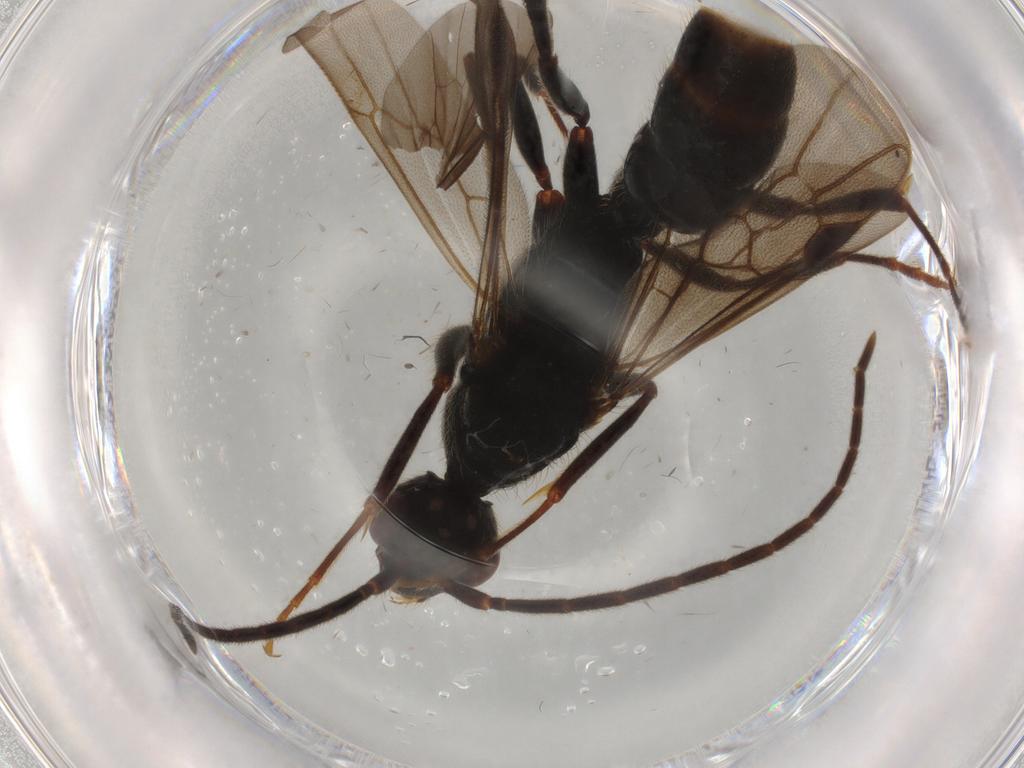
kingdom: Animalia
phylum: Arthropoda
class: Insecta
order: Hymenoptera
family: Formicidae
